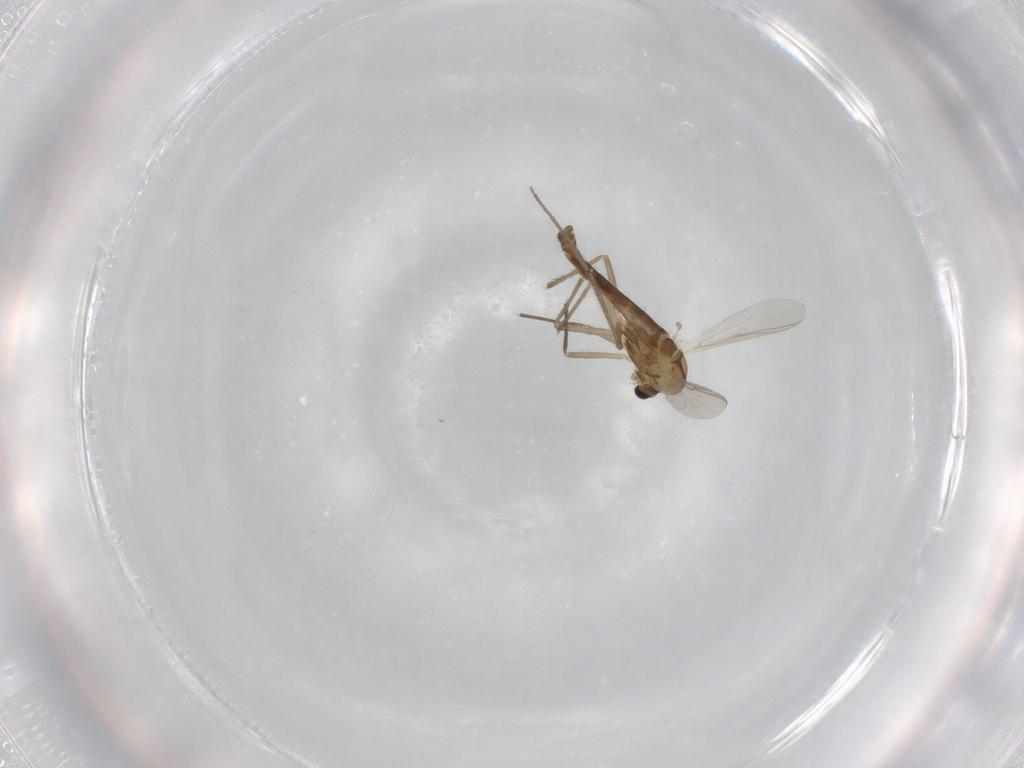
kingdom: Animalia
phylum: Arthropoda
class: Insecta
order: Diptera
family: Chironomidae
